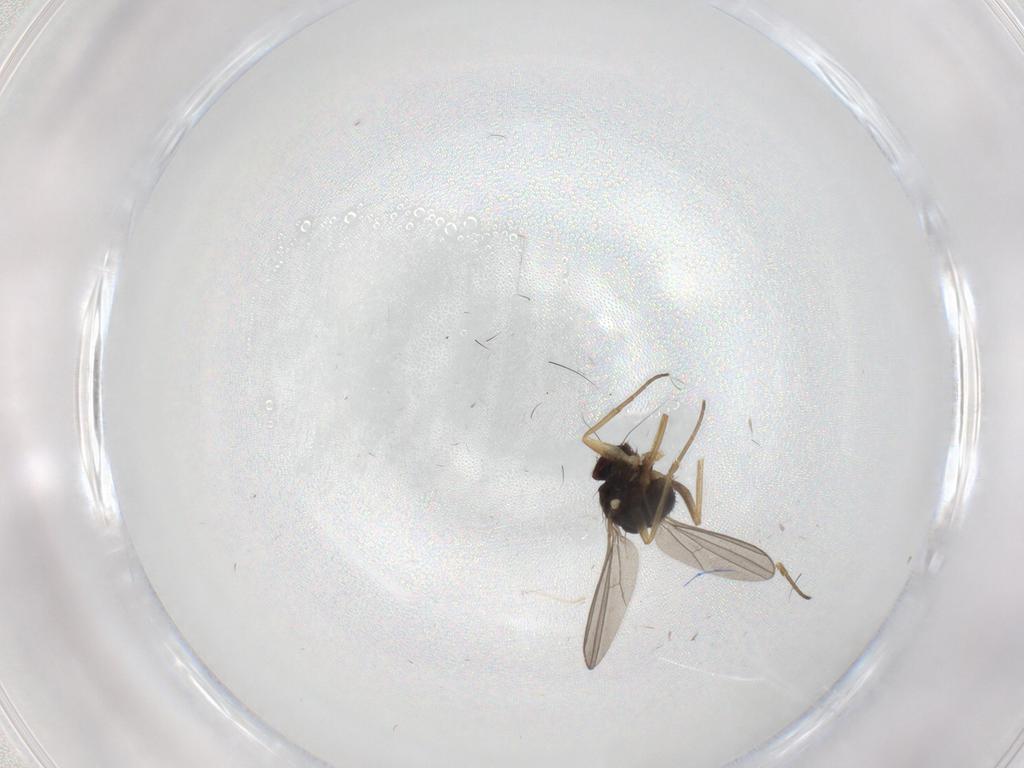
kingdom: Animalia
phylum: Arthropoda
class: Insecta
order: Diptera
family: Dolichopodidae
